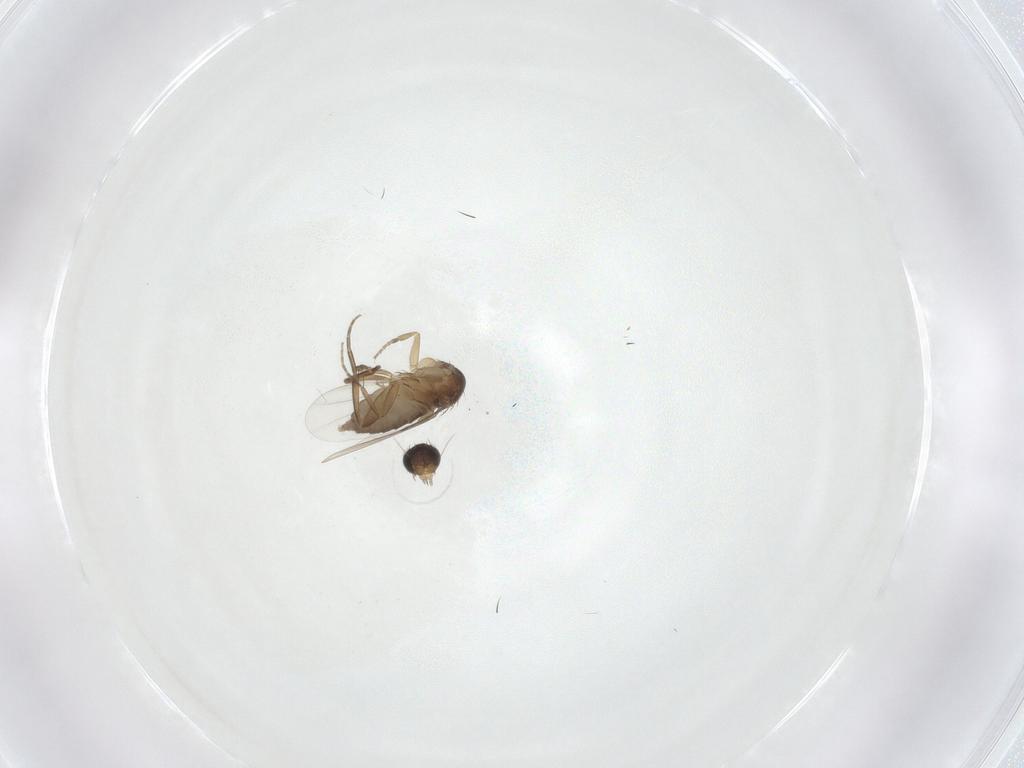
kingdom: Animalia
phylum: Arthropoda
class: Insecta
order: Diptera
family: Phoridae
